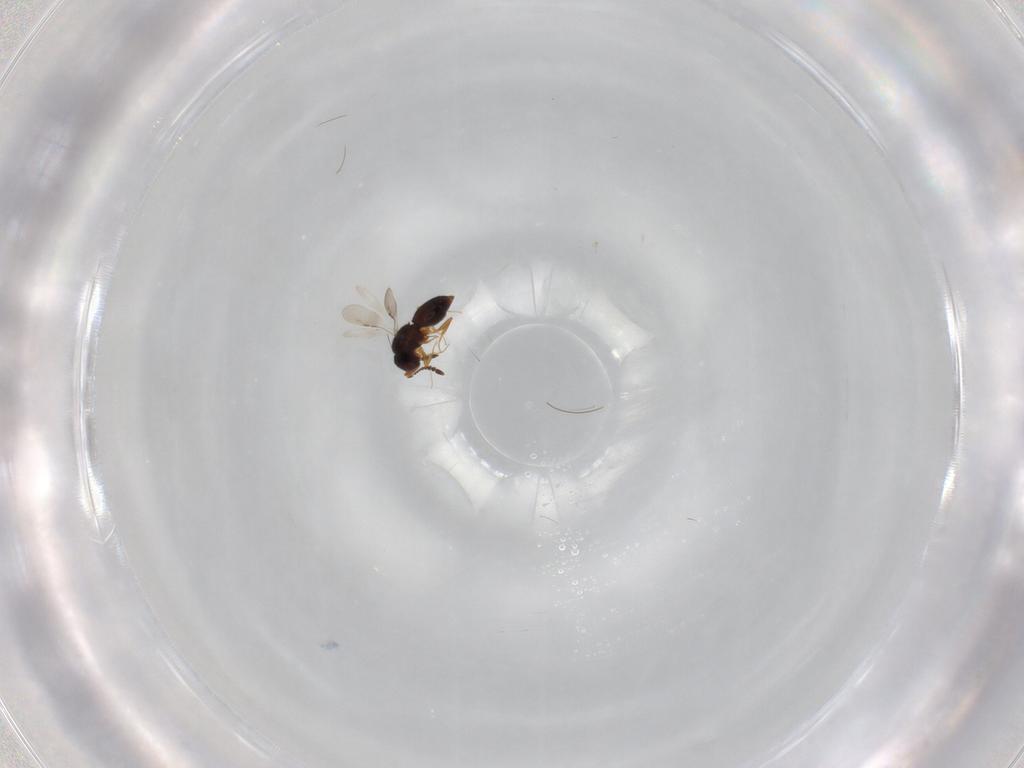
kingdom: Animalia
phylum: Arthropoda
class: Insecta
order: Hymenoptera
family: Ceraphronidae
